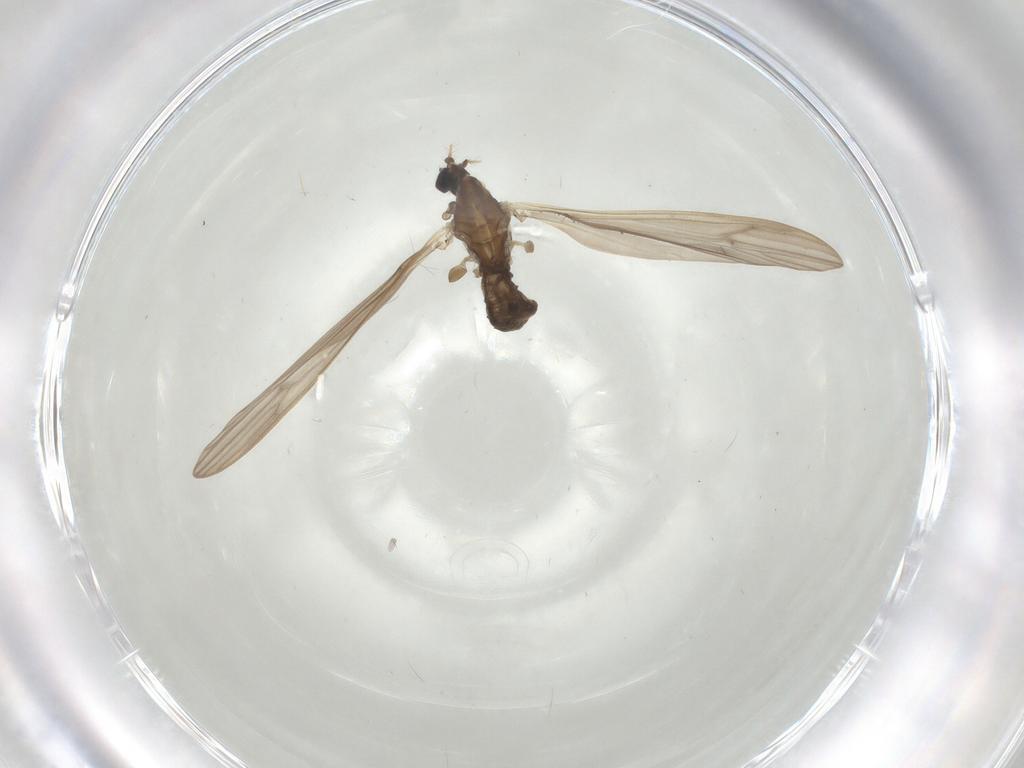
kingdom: Animalia
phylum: Arthropoda
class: Insecta
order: Diptera
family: Limoniidae
